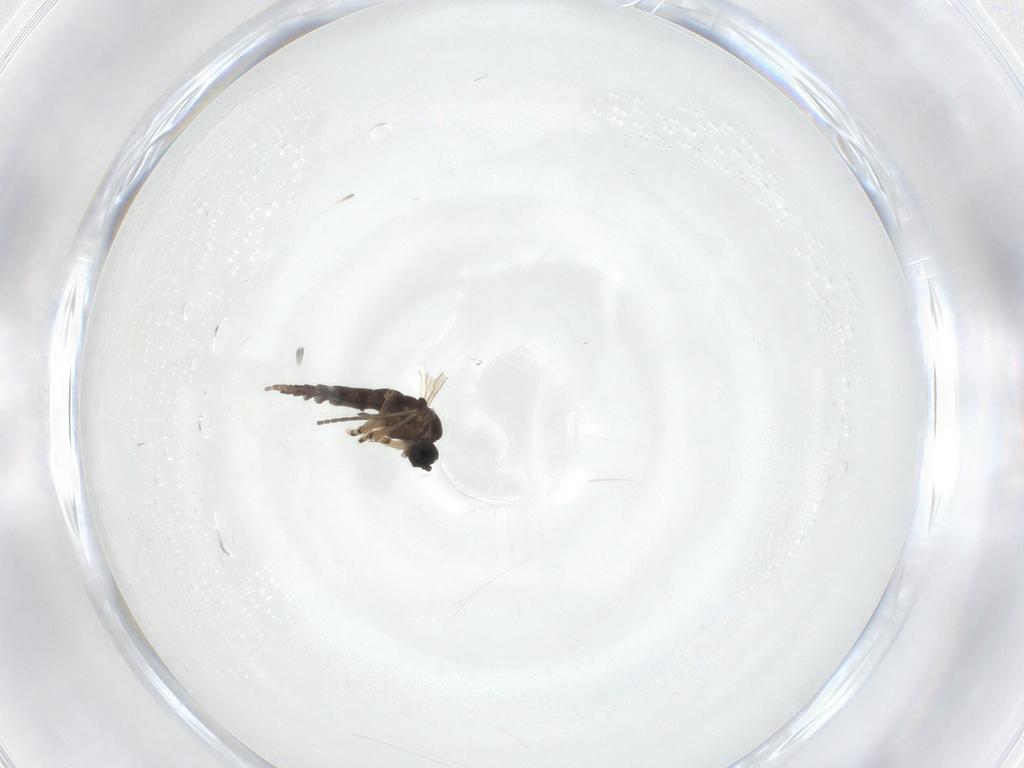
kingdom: Animalia
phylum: Arthropoda
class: Insecta
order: Diptera
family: Sciaridae
